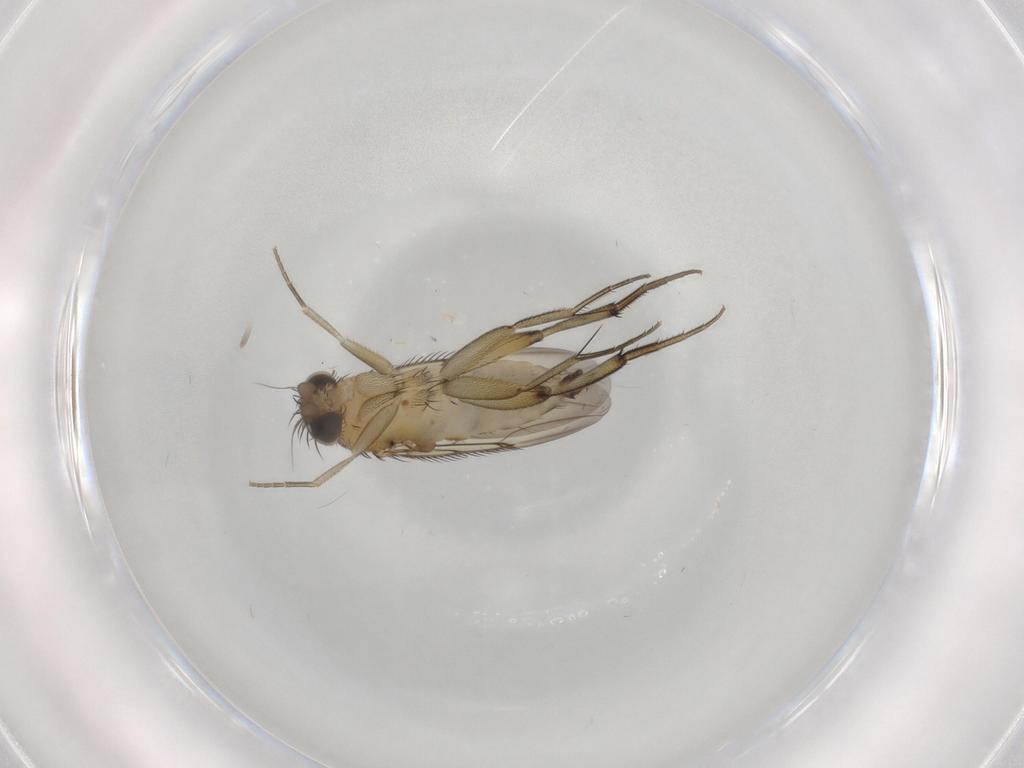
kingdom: Animalia
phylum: Arthropoda
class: Insecta
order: Diptera
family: Phoridae
